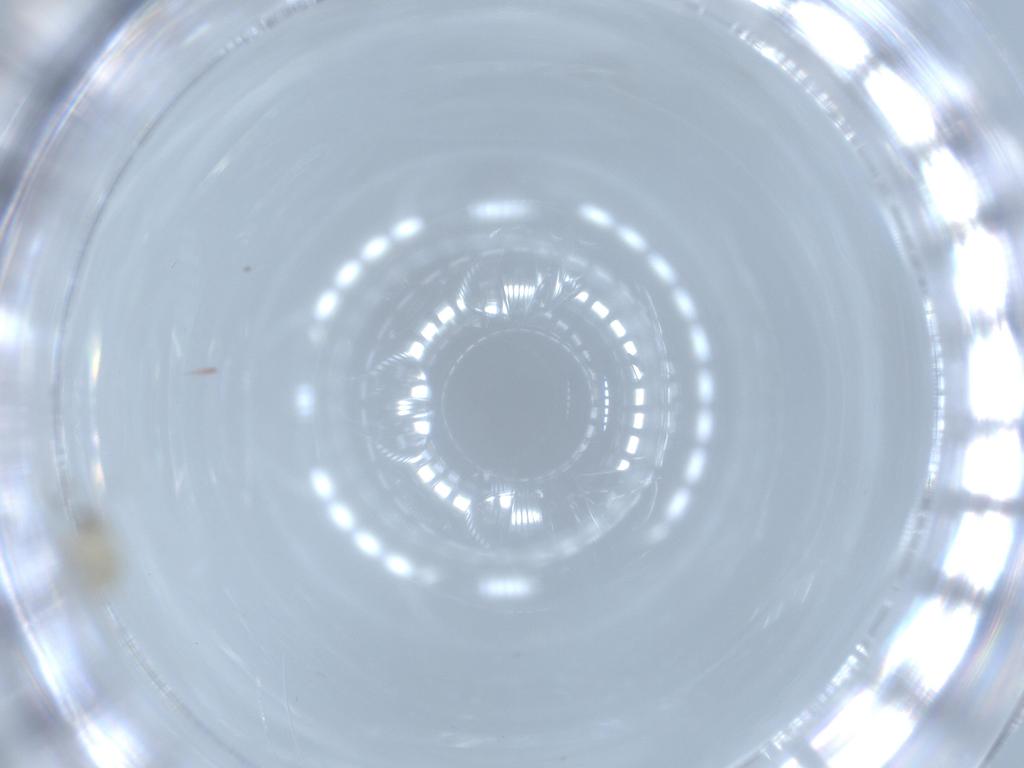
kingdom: Animalia
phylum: Arthropoda
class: Insecta
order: Diptera
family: Cecidomyiidae
